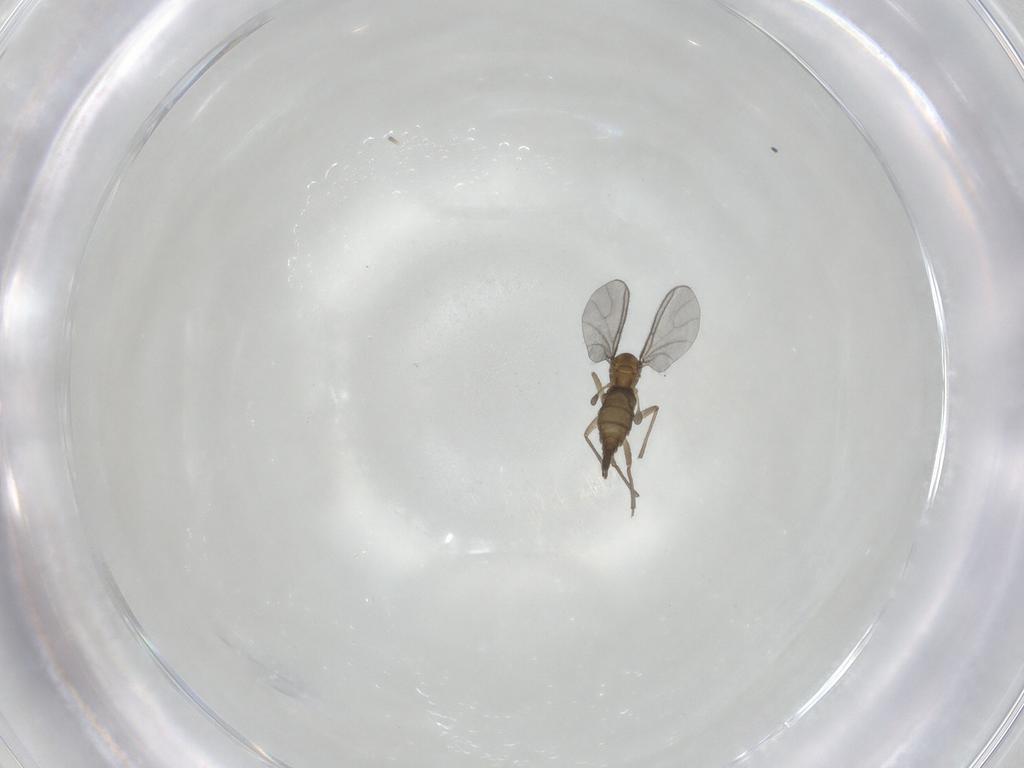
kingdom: Animalia
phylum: Arthropoda
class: Insecta
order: Diptera
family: Sciaridae
